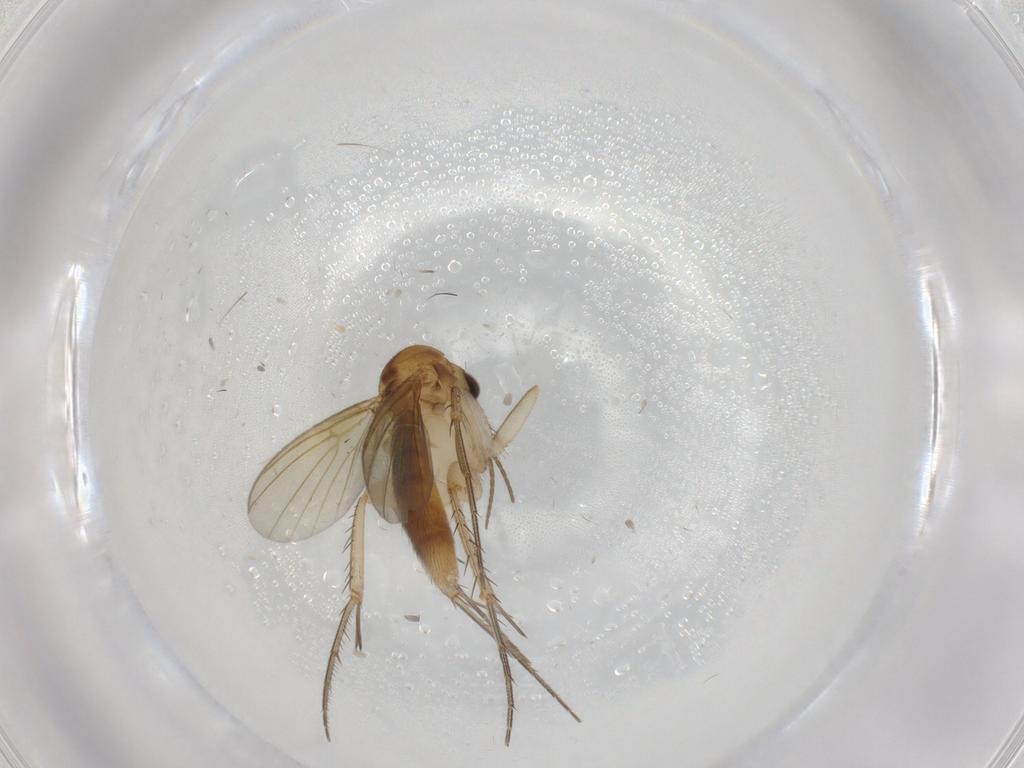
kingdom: Animalia
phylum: Arthropoda
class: Insecta
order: Diptera
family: Mycetophilidae
